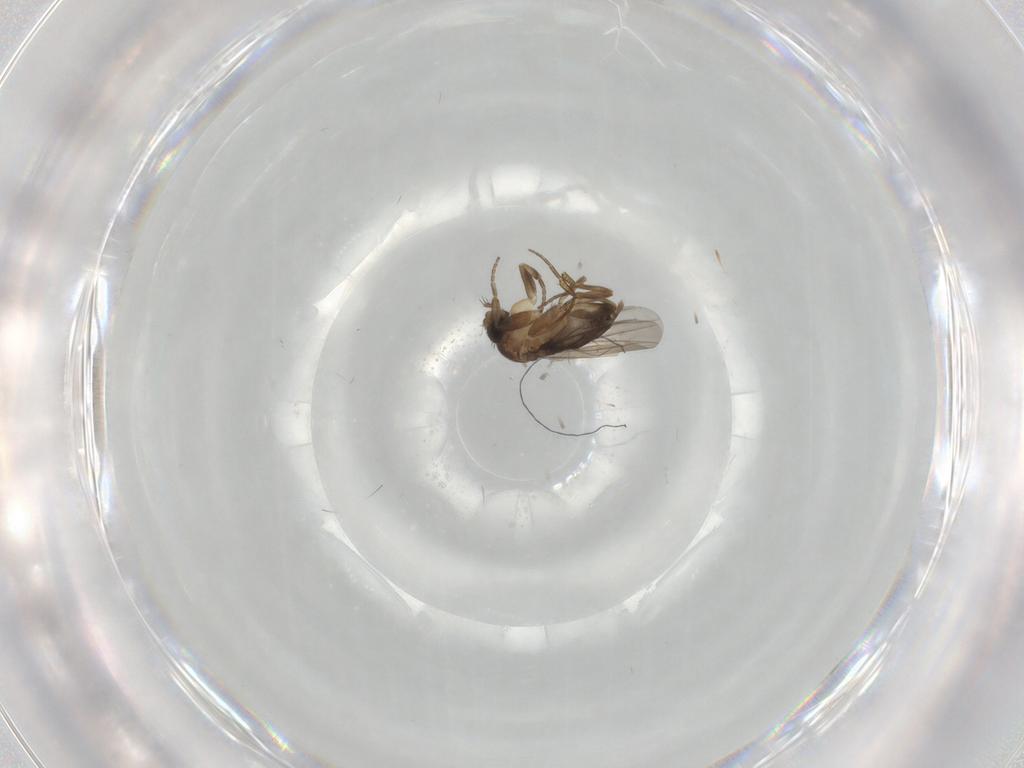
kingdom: Animalia
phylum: Arthropoda
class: Insecta
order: Diptera
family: Phoridae
